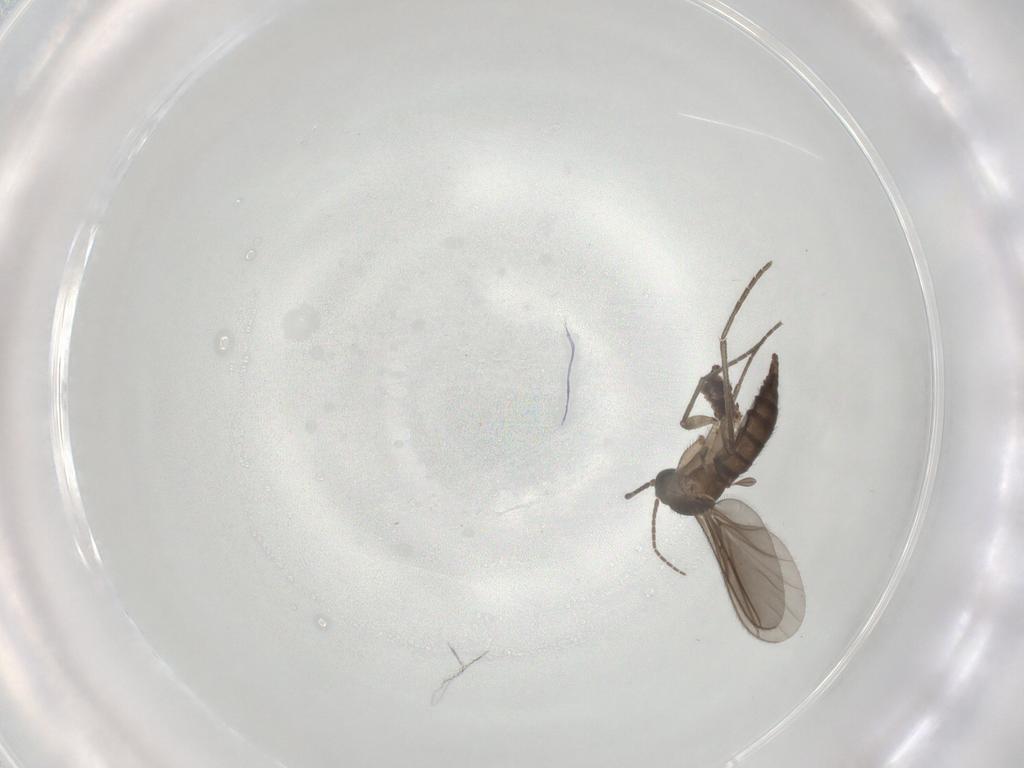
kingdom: Animalia
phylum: Arthropoda
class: Insecta
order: Diptera
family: Sciaridae
